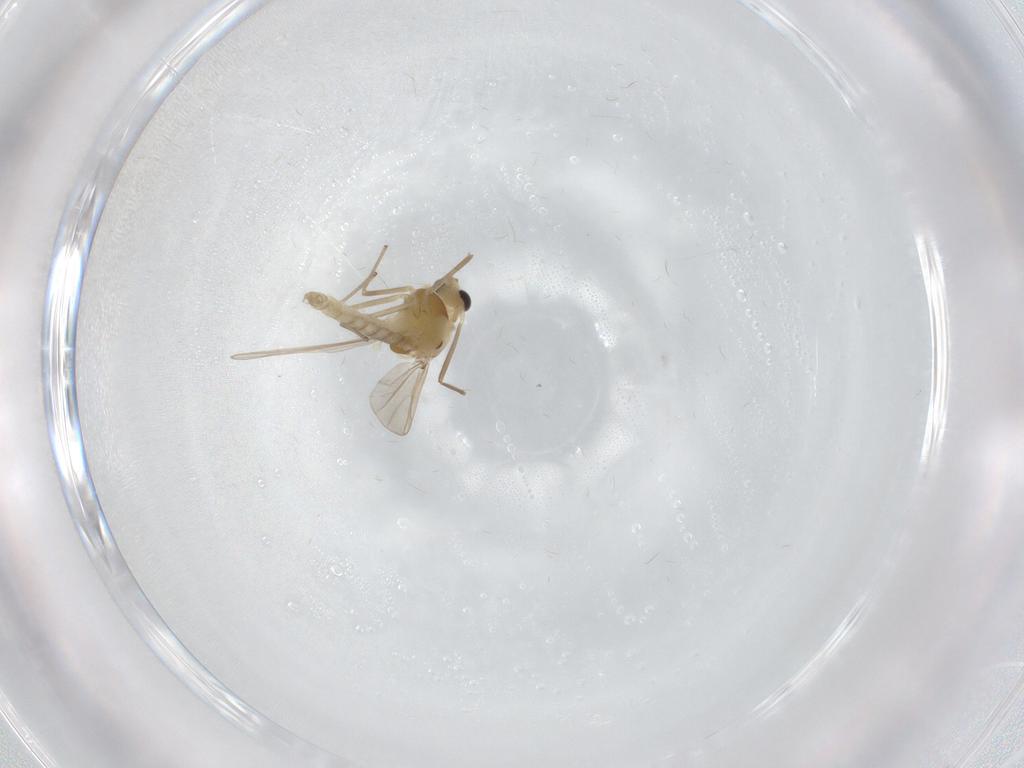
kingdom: Animalia
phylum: Arthropoda
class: Insecta
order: Diptera
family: Chironomidae
